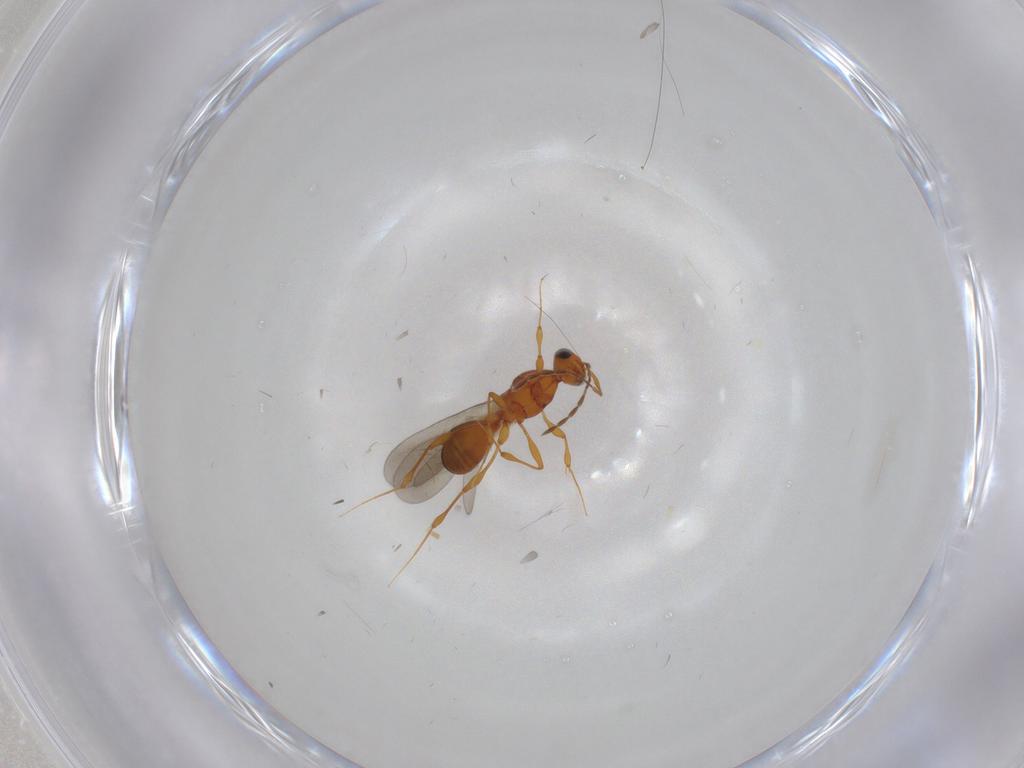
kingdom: Animalia
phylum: Arthropoda
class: Insecta
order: Hymenoptera
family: Platygastridae
